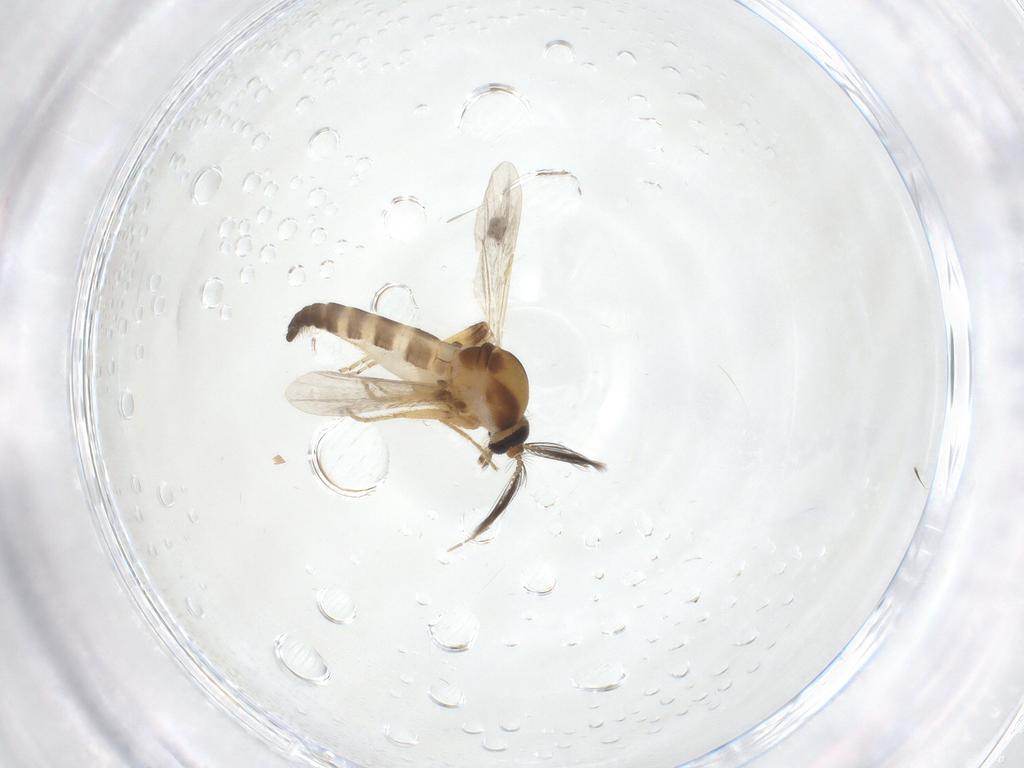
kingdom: Animalia
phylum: Arthropoda
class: Insecta
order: Diptera
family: Ceratopogonidae
